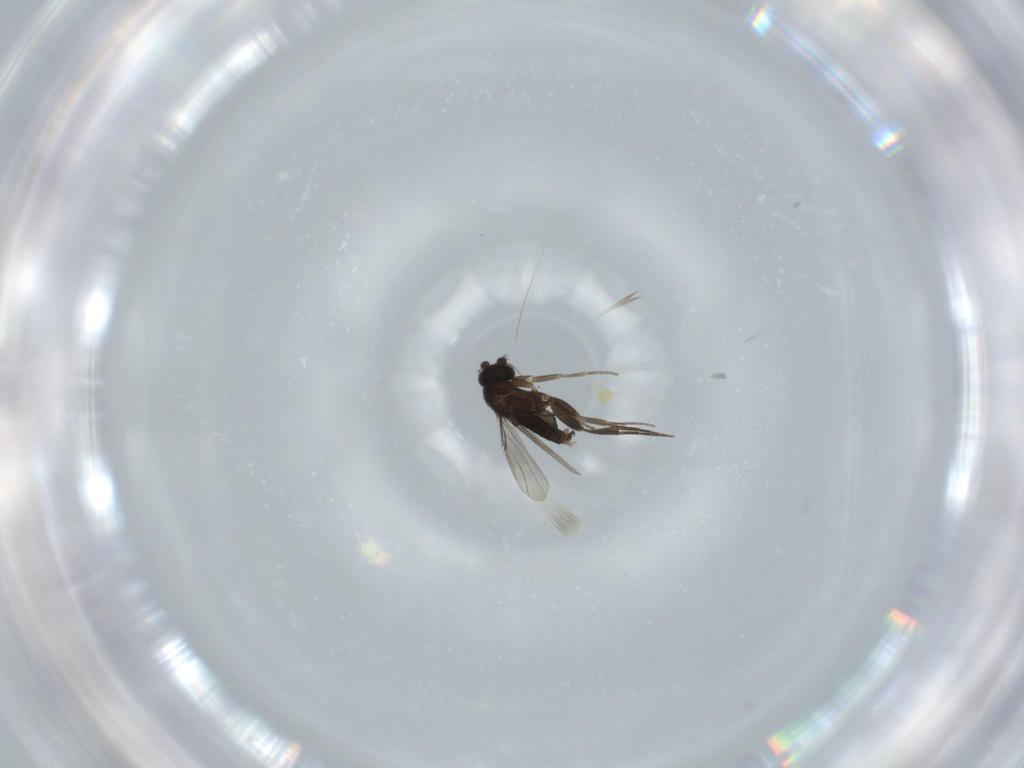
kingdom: Animalia
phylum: Arthropoda
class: Insecta
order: Diptera
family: Phoridae
